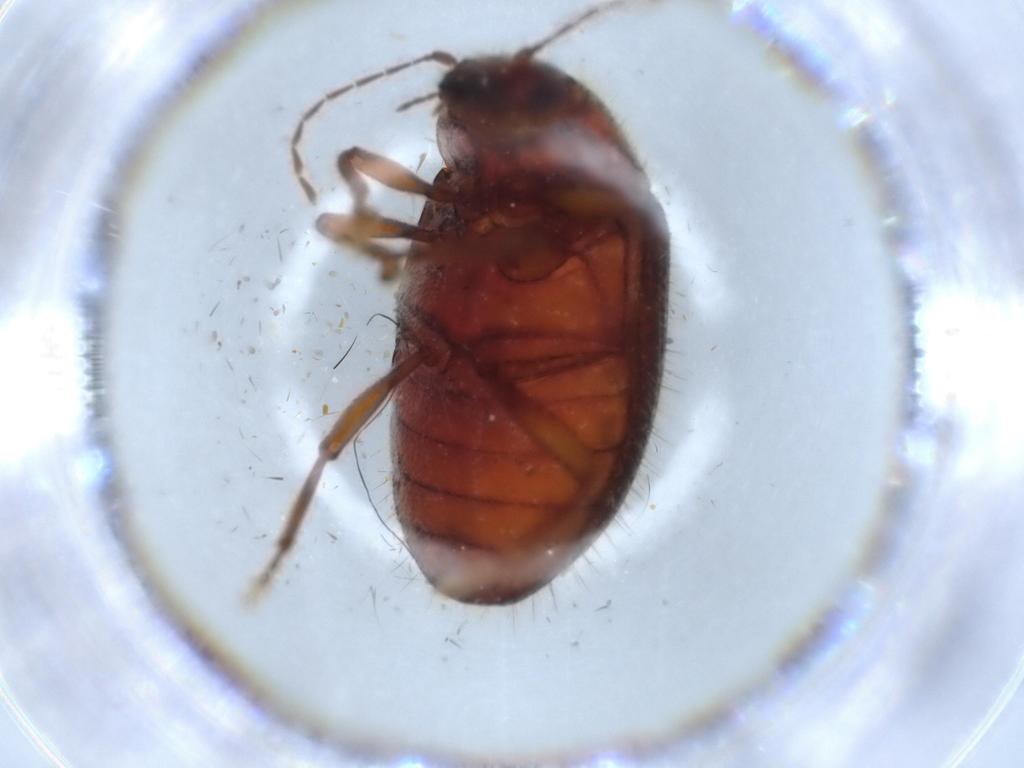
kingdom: Animalia
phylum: Arthropoda
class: Insecta
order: Coleoptera
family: Artematopodidae
